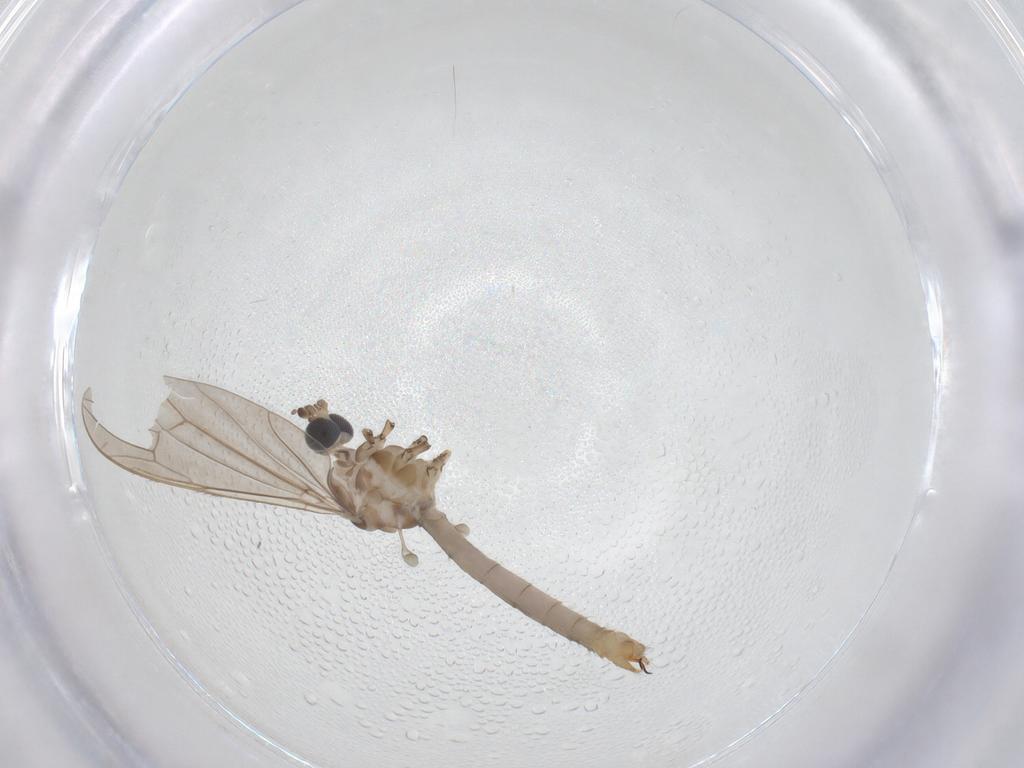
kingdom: Animalia
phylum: Arthropoda
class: Insecta
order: Diptera
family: Limoniidae
